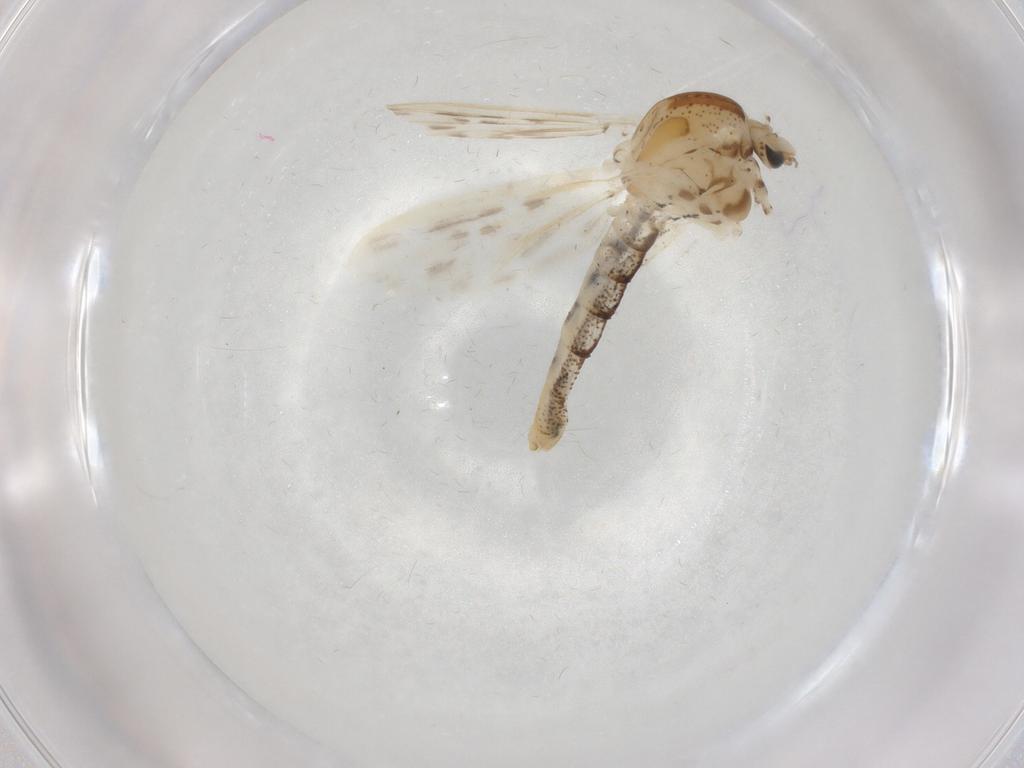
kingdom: Animalia
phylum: Arthropoda
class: Insecta
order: Diptera
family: Chaoboridae
